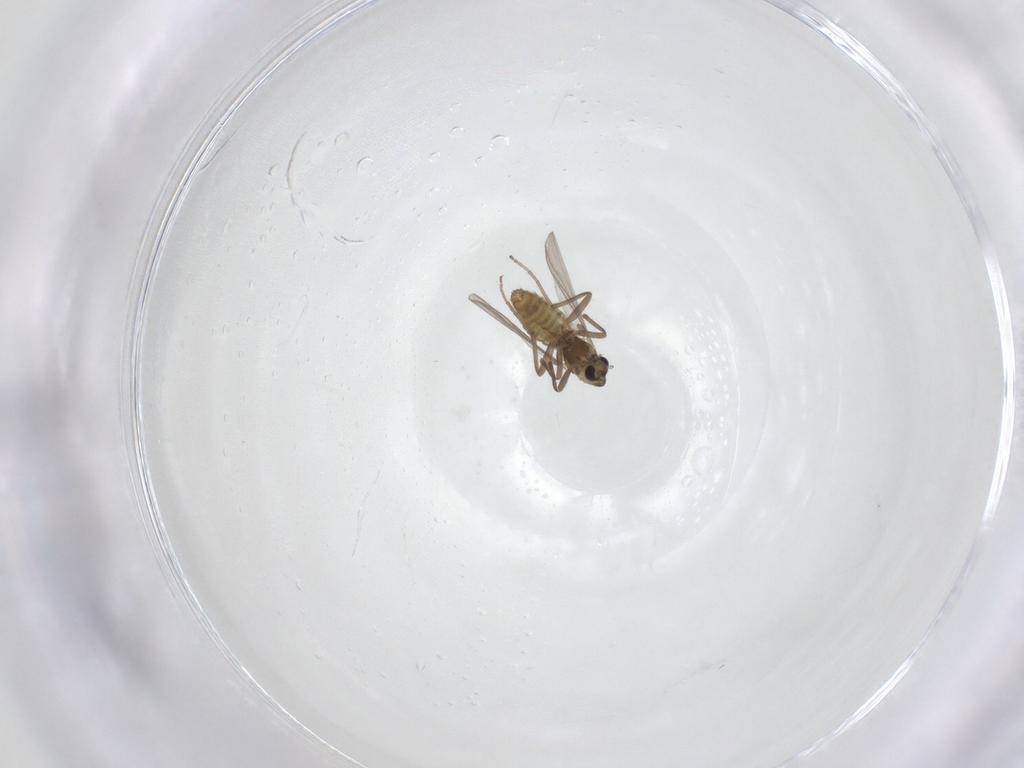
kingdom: Animalia
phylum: Arthropoda
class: Insecta
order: Diptera
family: Chironomidae
